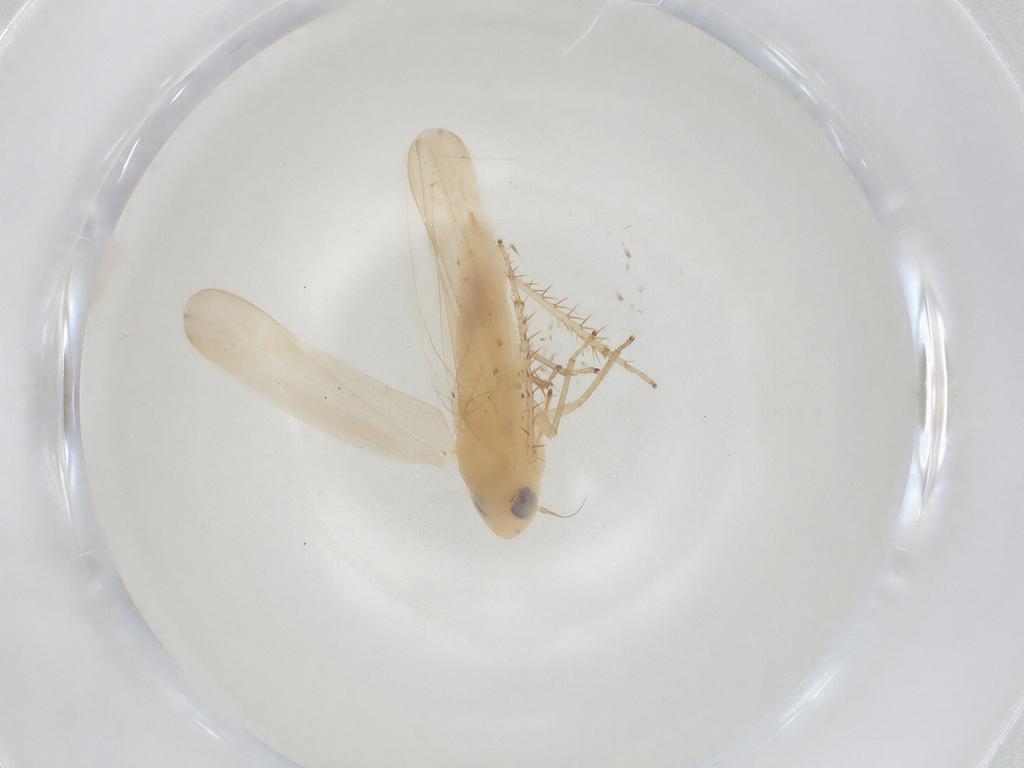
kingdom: Animalia
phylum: Arthropoda
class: Insecta
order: Hemiptera
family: Cicadellidae
